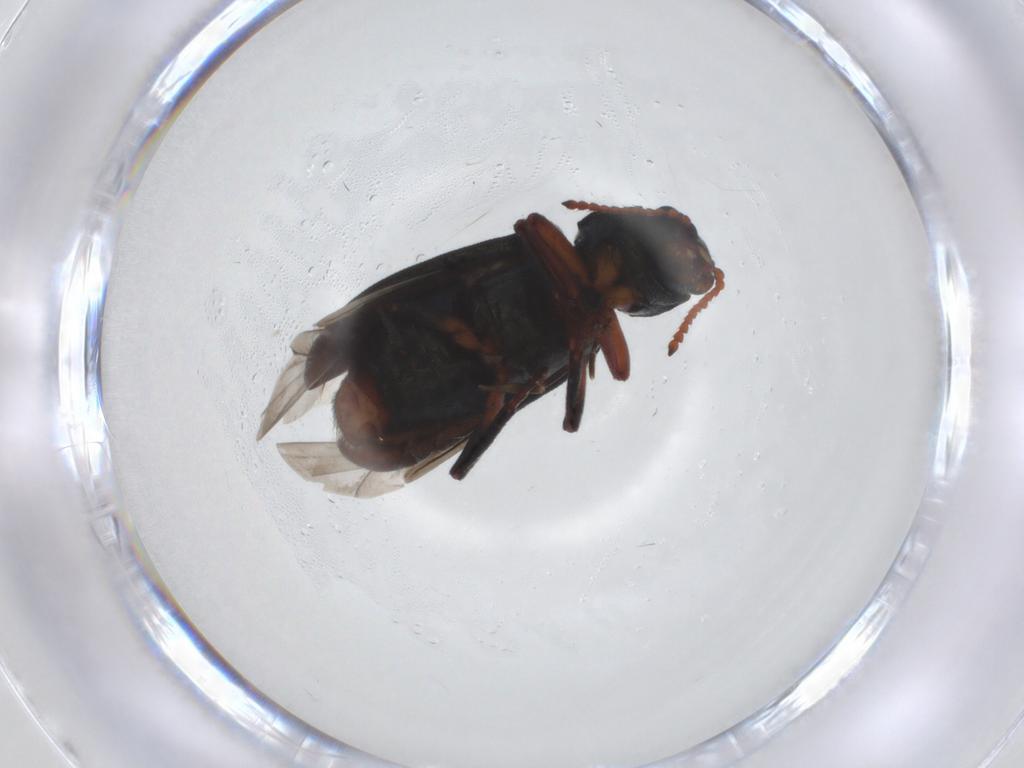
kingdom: Animalia
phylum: Arthropoda
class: Insecta
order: Coleoptera
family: Melyridae
